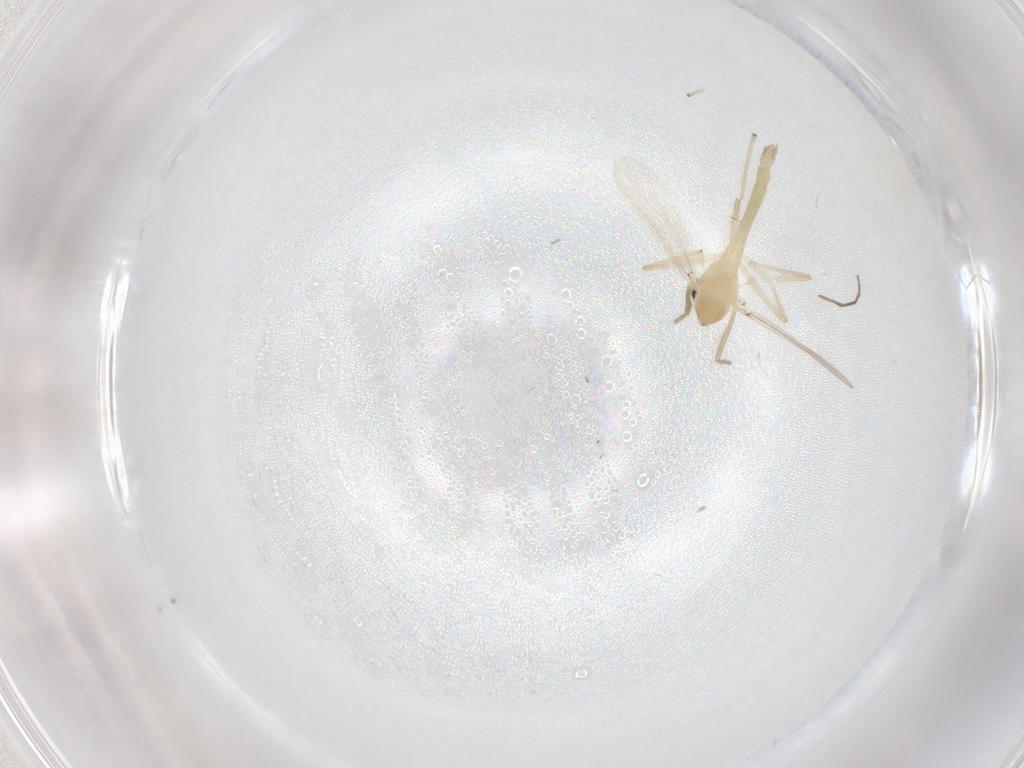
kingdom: Animalia
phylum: Arthropoda
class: Insecta
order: Diptera
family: Chironomidae
